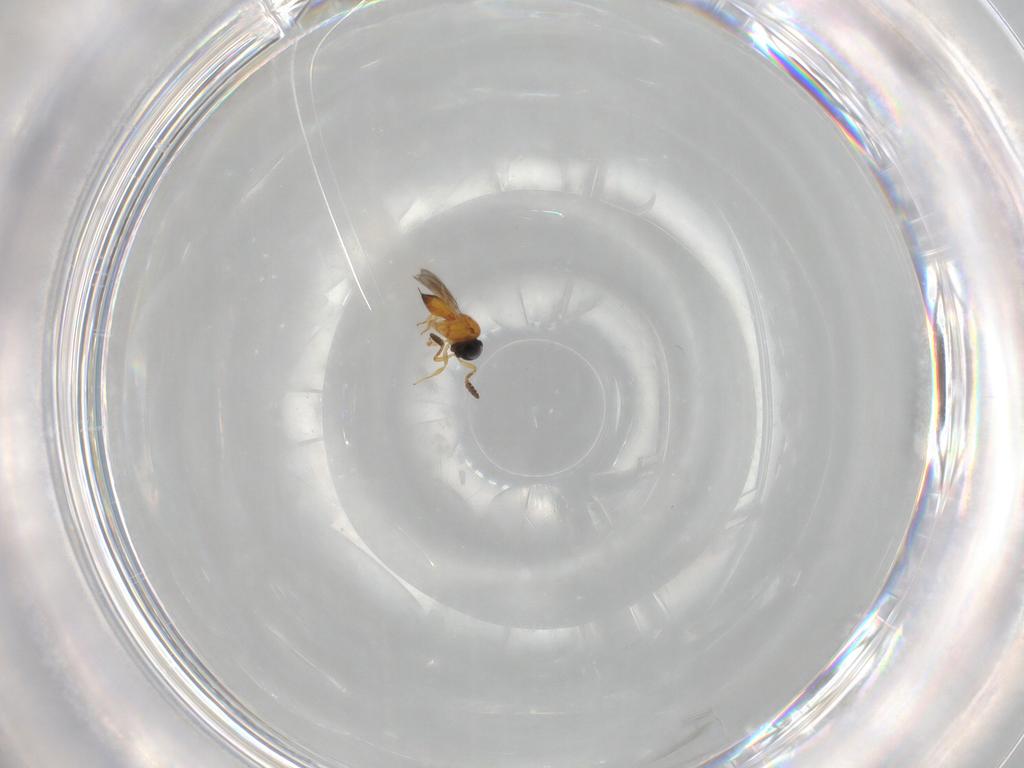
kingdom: Animalia
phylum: Arthropoda
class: Insecta
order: Hymenoptera
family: Scelionidae
